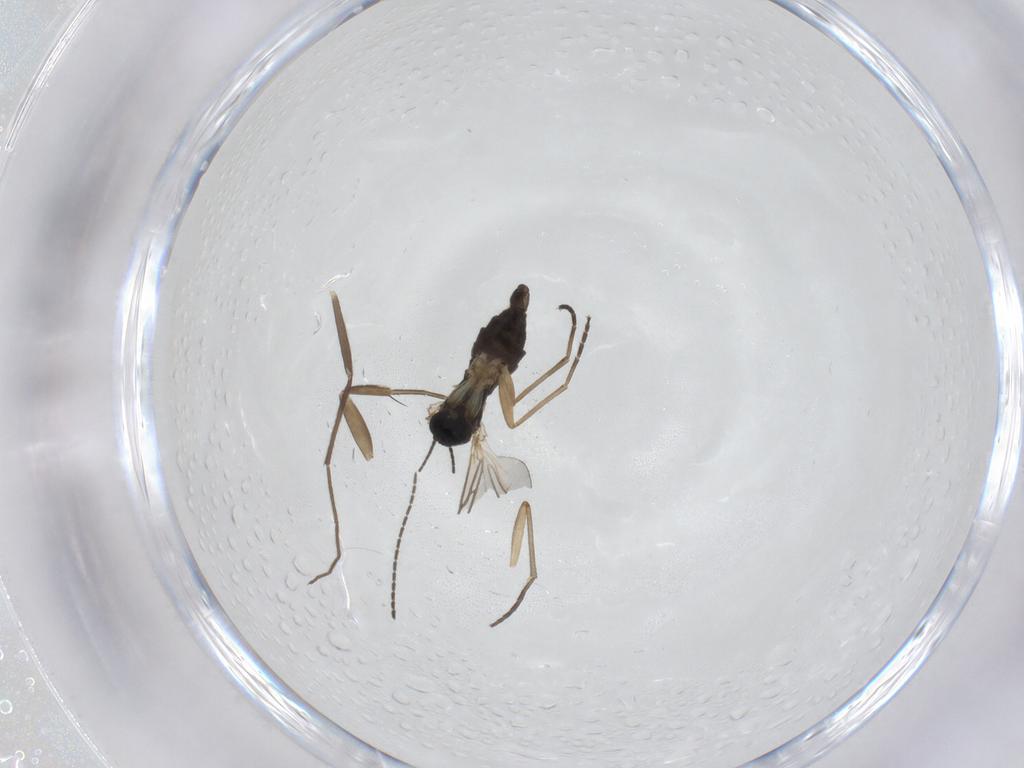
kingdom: Animalia
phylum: Arthropoda
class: Insecta
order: Diptera
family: Chironomidae
